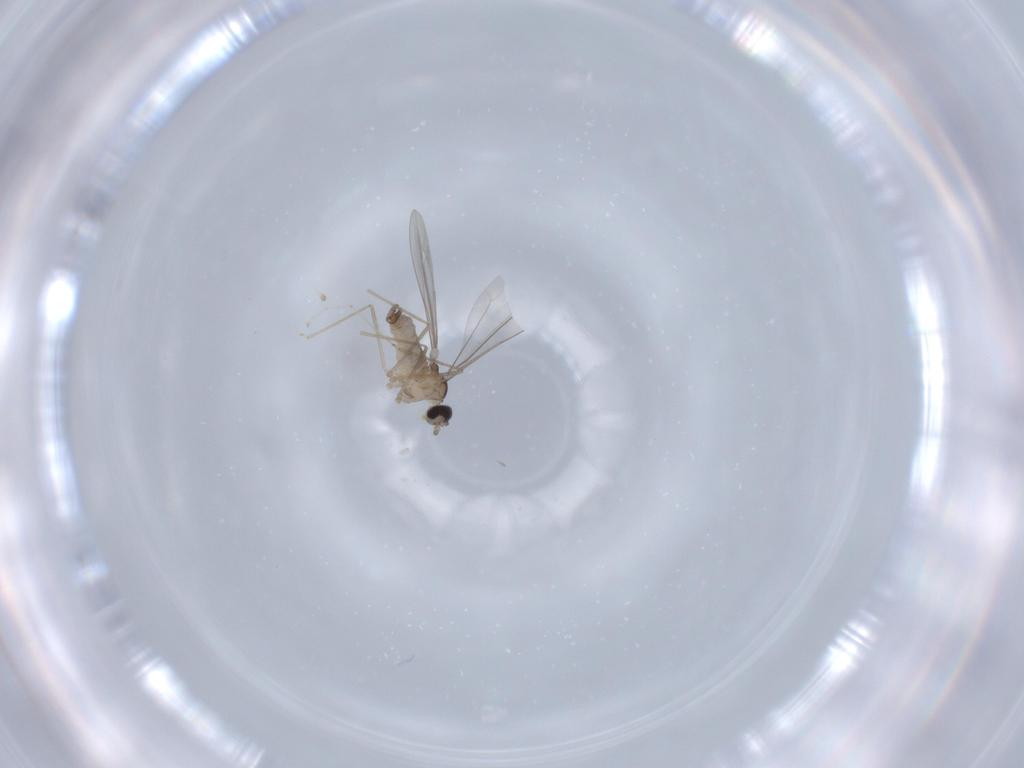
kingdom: Animalia
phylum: Arthropoda
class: Insecta
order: Diptera
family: Cecidomyiidae
